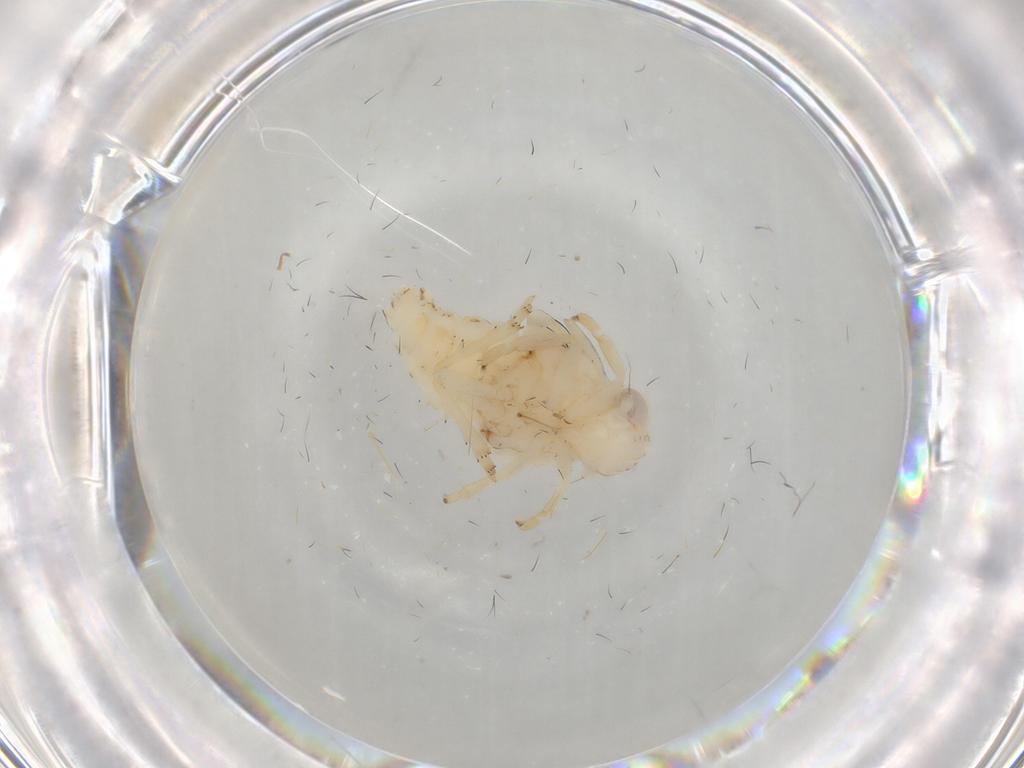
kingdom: Animalia
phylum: Arthropoda
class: Insecta
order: Hemiptera
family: Nogodinidae
